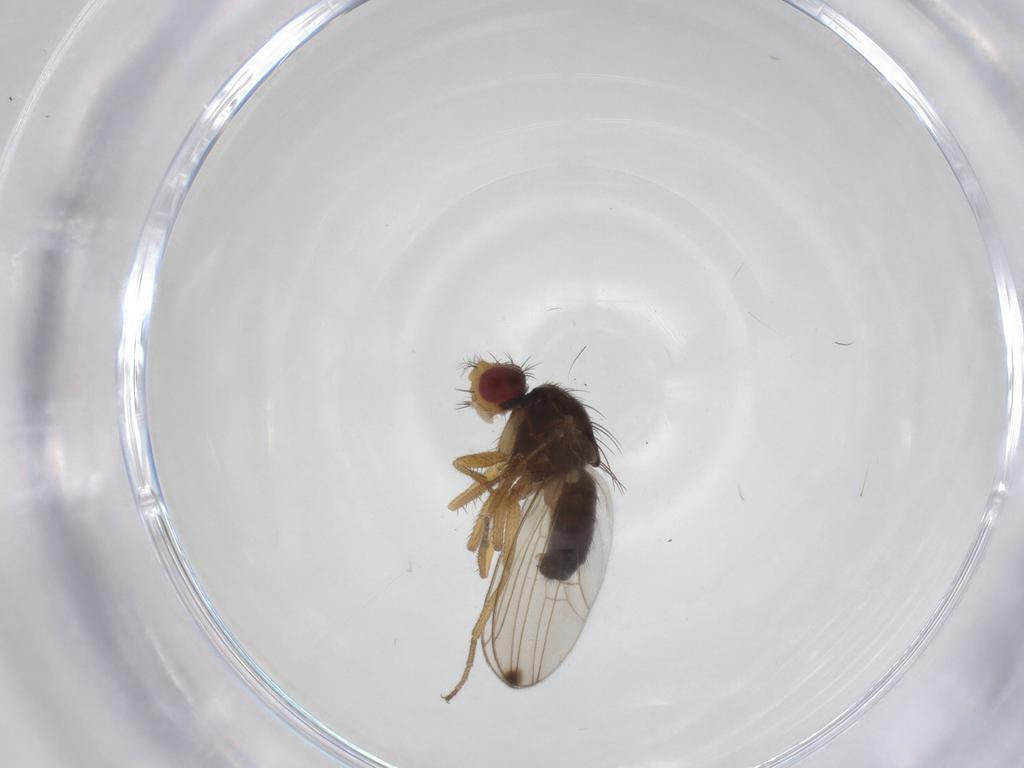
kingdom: Animalia
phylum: Arthropoda
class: Insecta
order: Diptera
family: Drosophilidae
